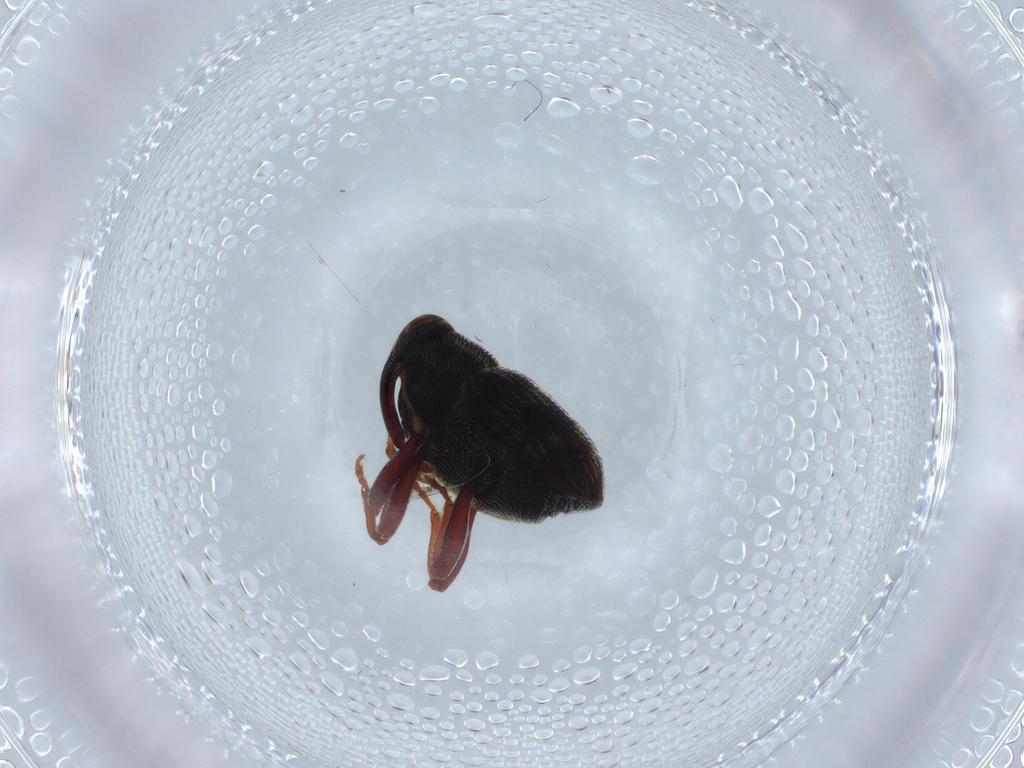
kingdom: Animalia
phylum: Arthropoda
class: Insecta
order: Coleoptera
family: Curculionidae
